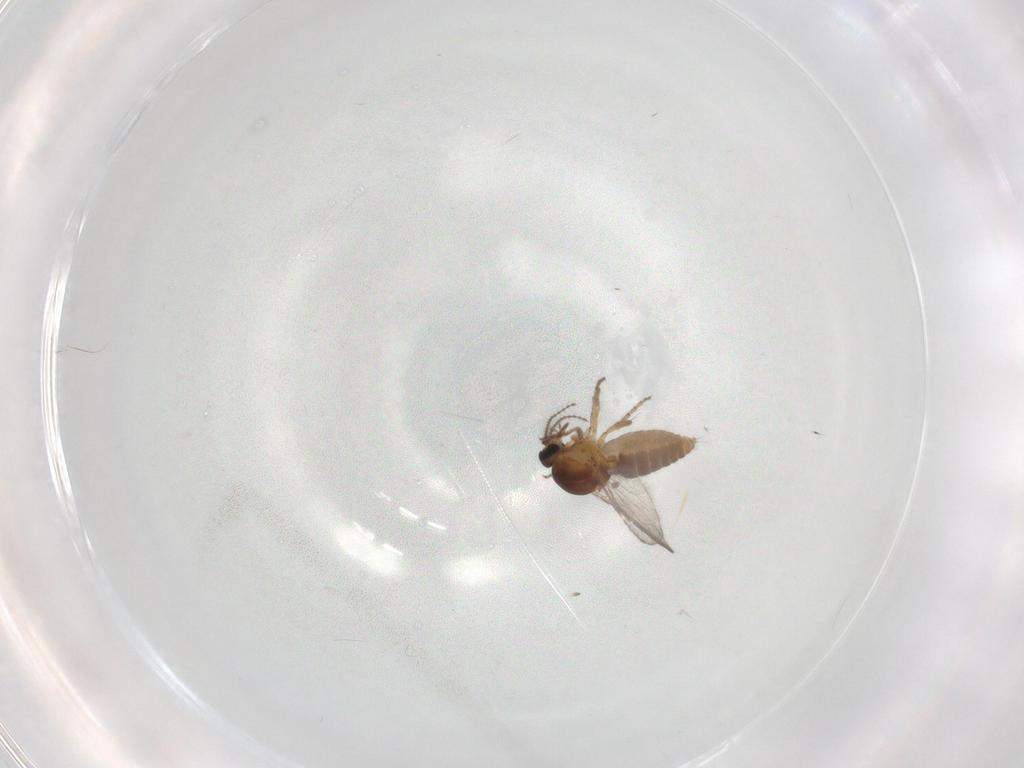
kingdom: Animalia
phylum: Arthropoda
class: Insecta
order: Diptera
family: Ceratopogonidae
